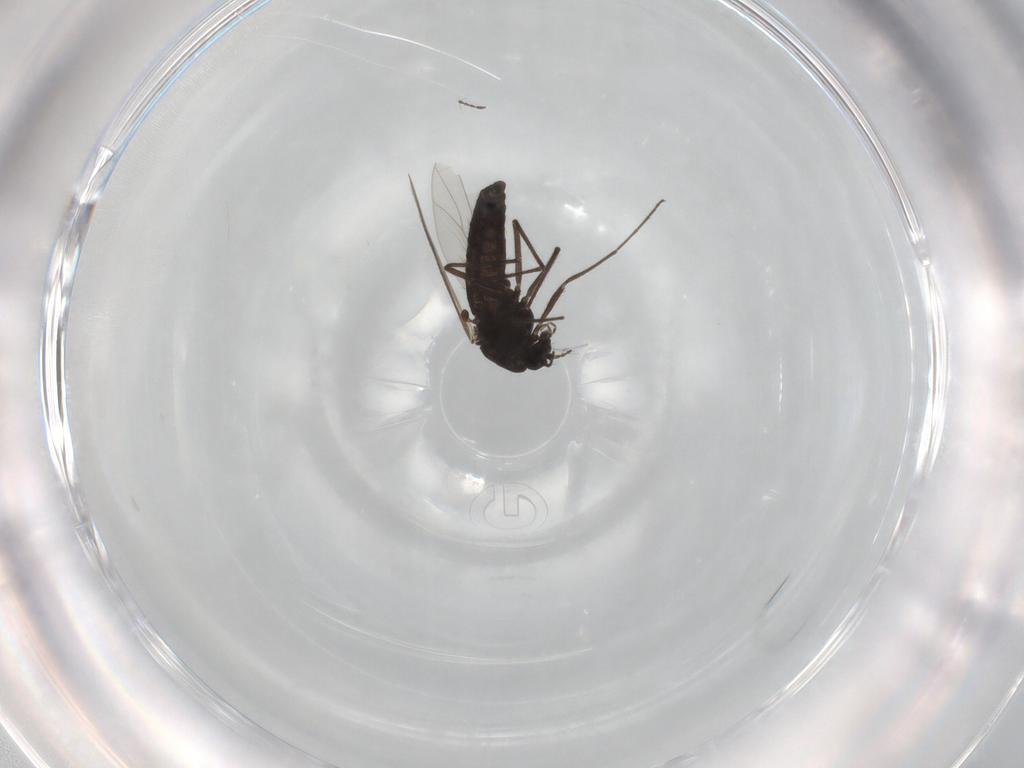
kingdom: Animalia
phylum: Arthropoda
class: Insecta
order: Diptera
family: Chironomidae
